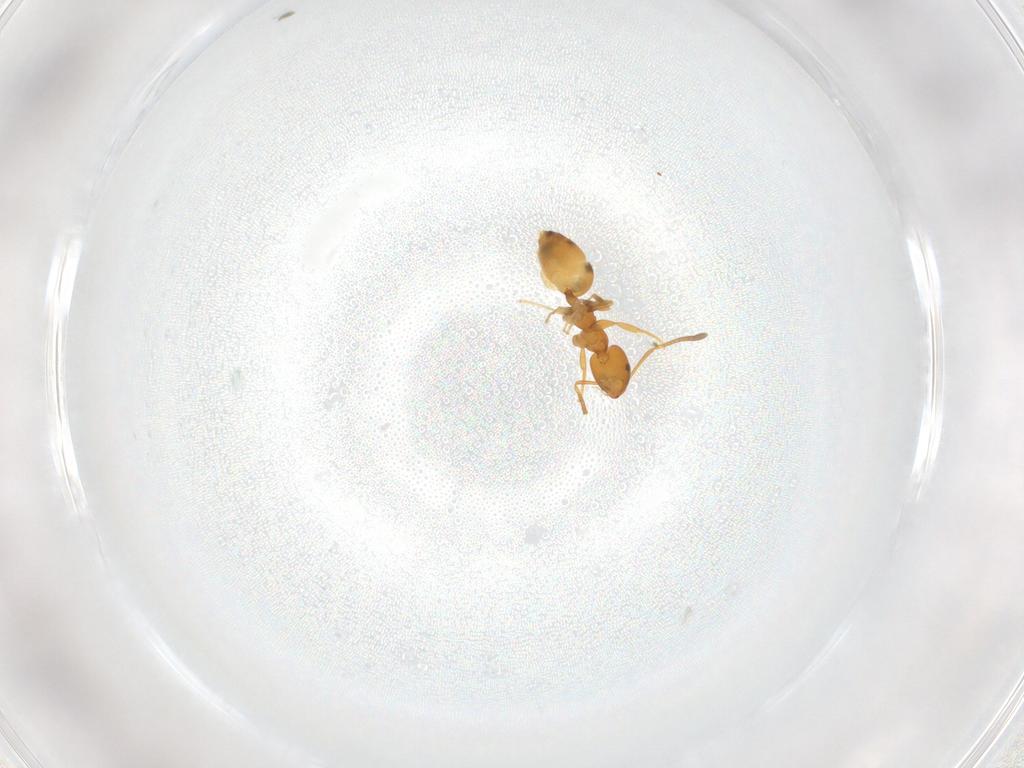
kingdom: Animalia
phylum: Arthropoda
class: Insecta
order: Hymenoptera
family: Formicidae
